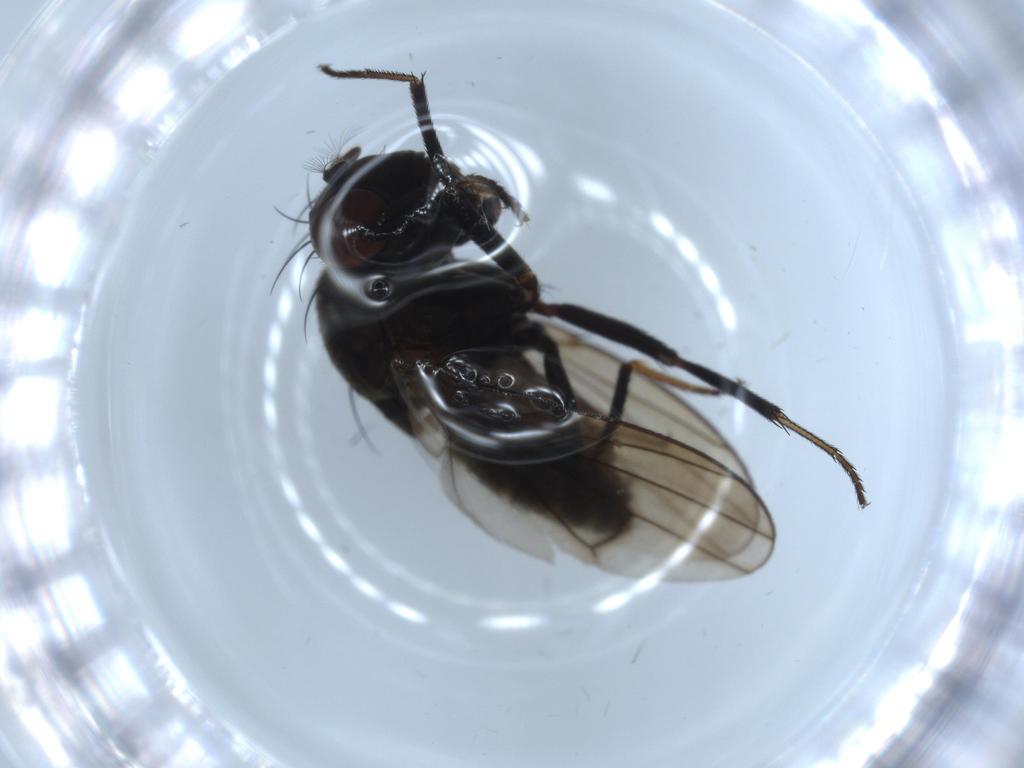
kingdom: Animalia
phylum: Arthropoda
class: Insecta
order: Diptera
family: Ephydridae
